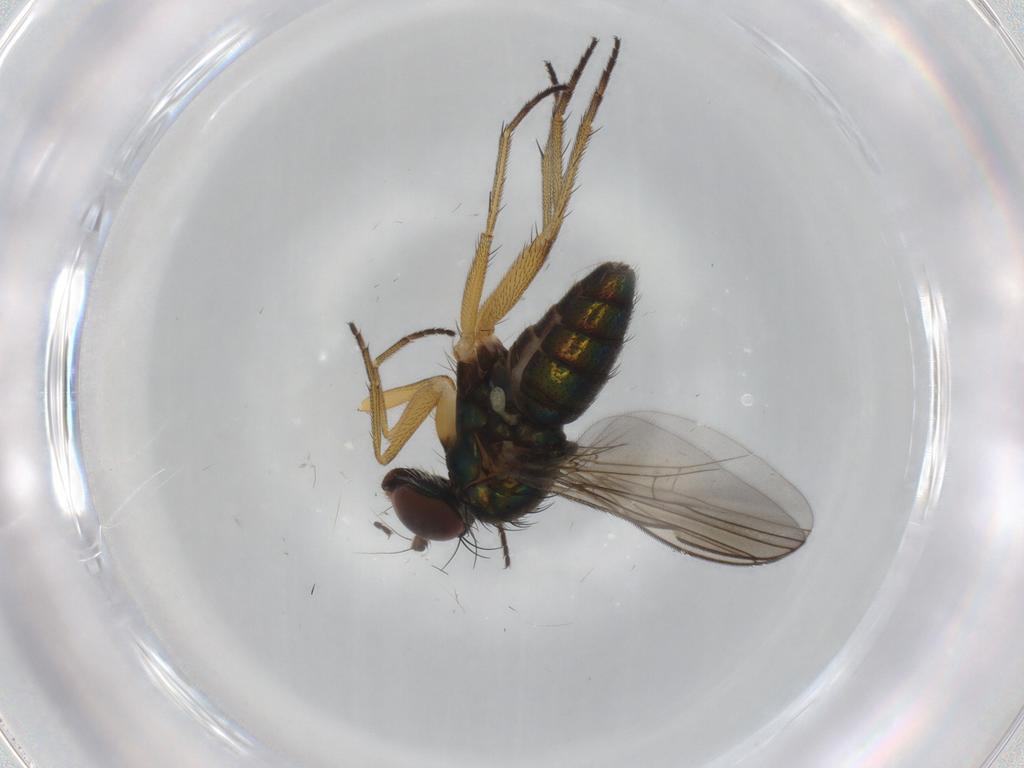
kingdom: Animalia
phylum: Arthropoda
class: Insecta
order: Diptera
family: Dolichopodidae
